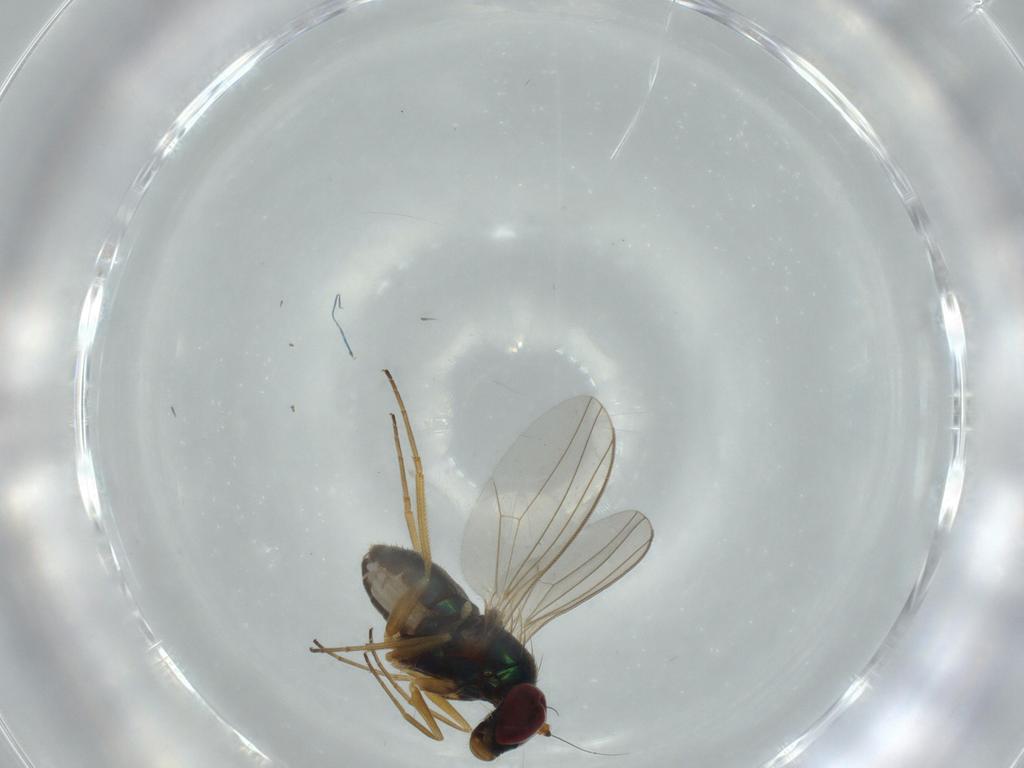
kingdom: Animalia
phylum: Arthropoda
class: Insecta
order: Diptera
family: Dolichopodidae
